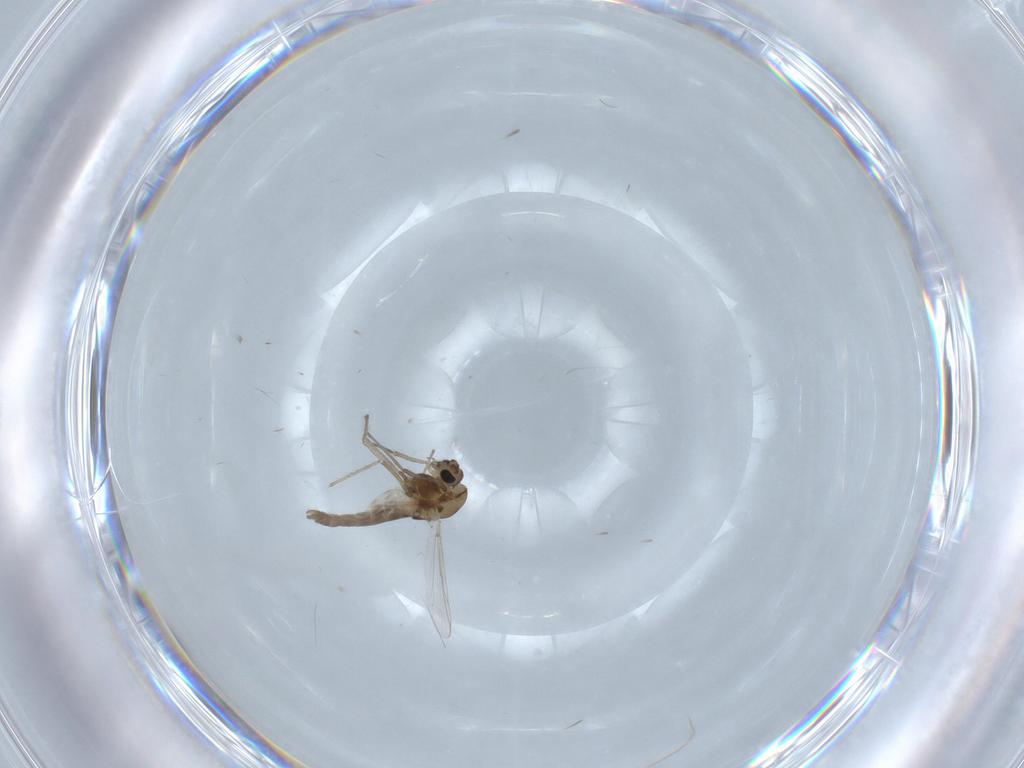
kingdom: Animalia
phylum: Arthropoda
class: Insecta
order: Diptera
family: Chironomidae
